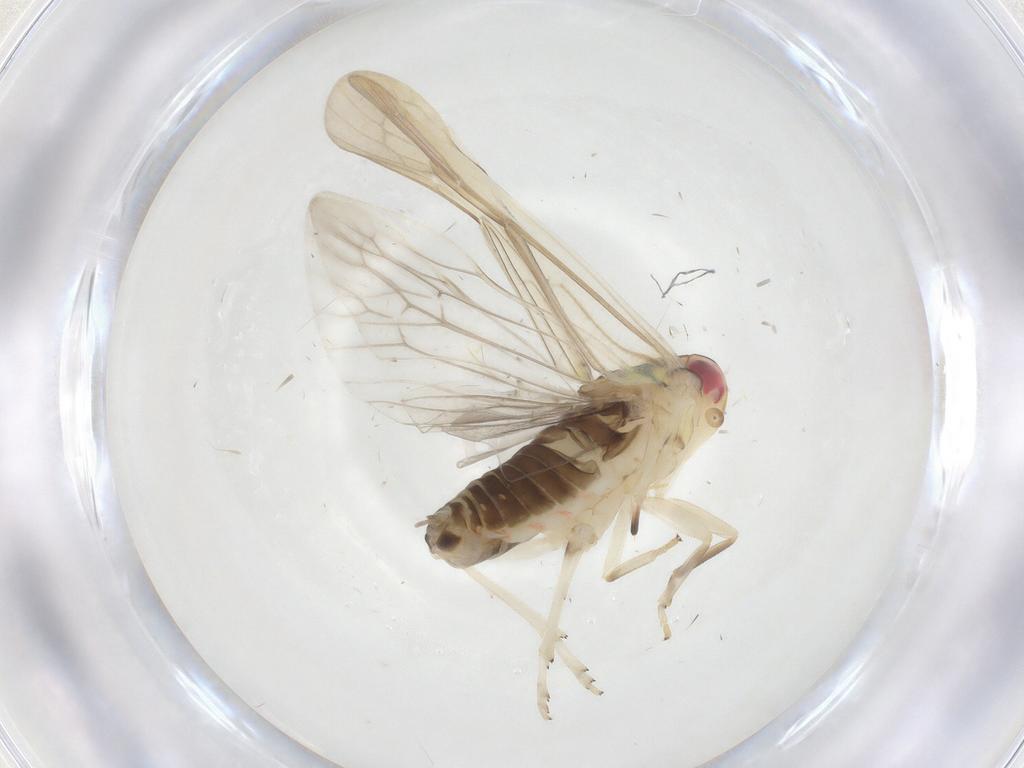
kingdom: Animalia
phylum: Arthropoda
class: Insecta
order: Hemiptera
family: Achilidae
